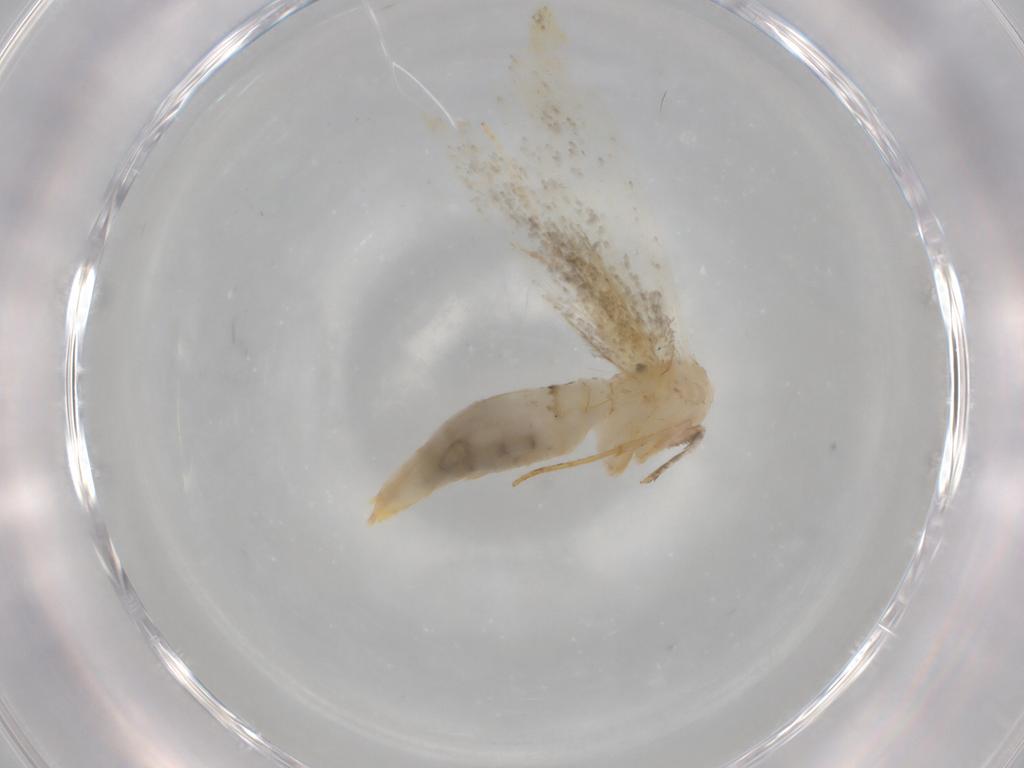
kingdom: Animalia
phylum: Arthropoda
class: Insecta
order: Lepidoptera
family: Tineidae
